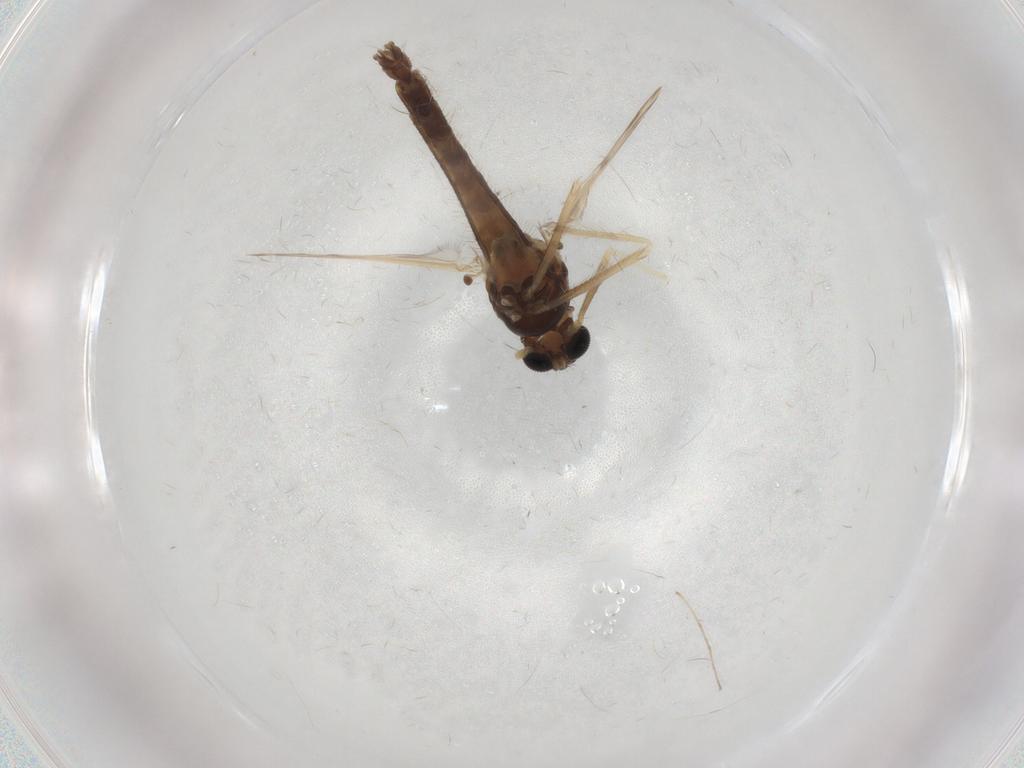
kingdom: Animalia
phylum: Arthropoda
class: Insecta
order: Diptera
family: Chironomidae
